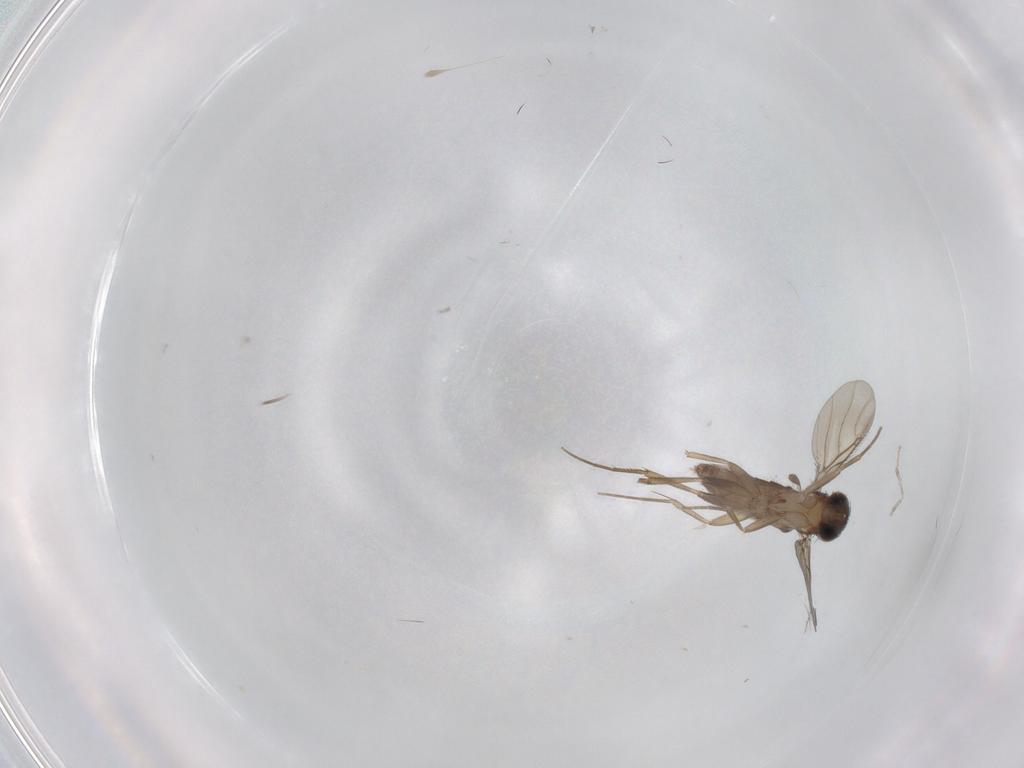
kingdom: Animalia
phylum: Arthropoda
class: Insecta
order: Diptera
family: Mycetophilidae
